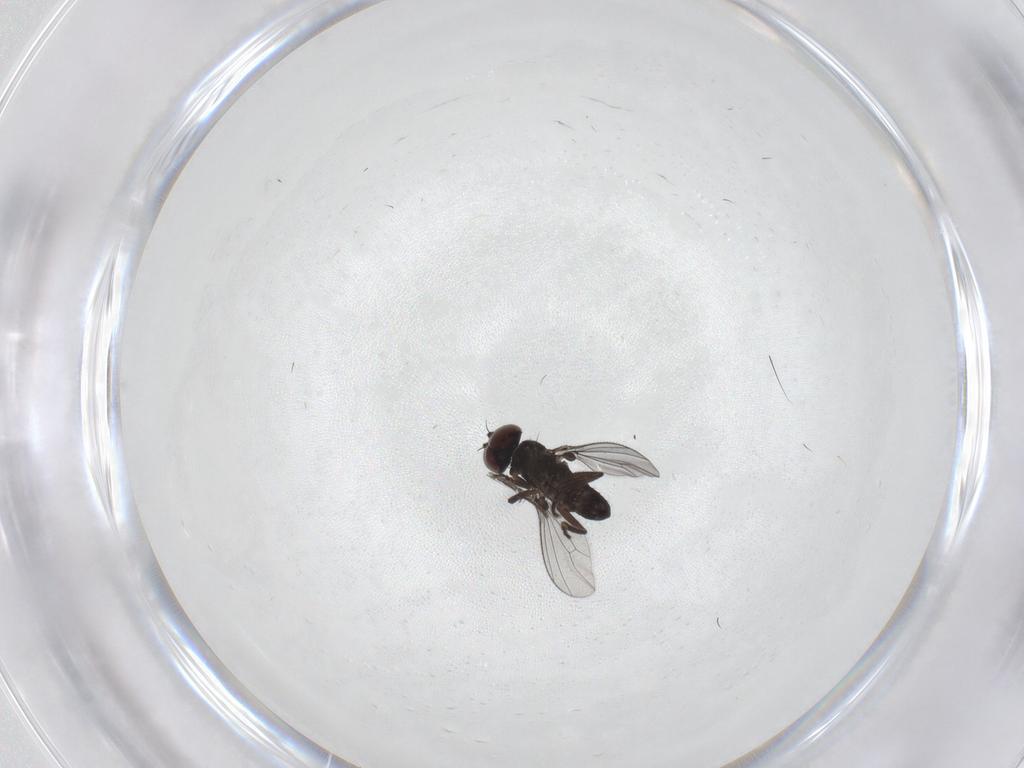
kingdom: Animalia
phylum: Arthropoda
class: Insecta
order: Diptera
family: Dolichopodidae
